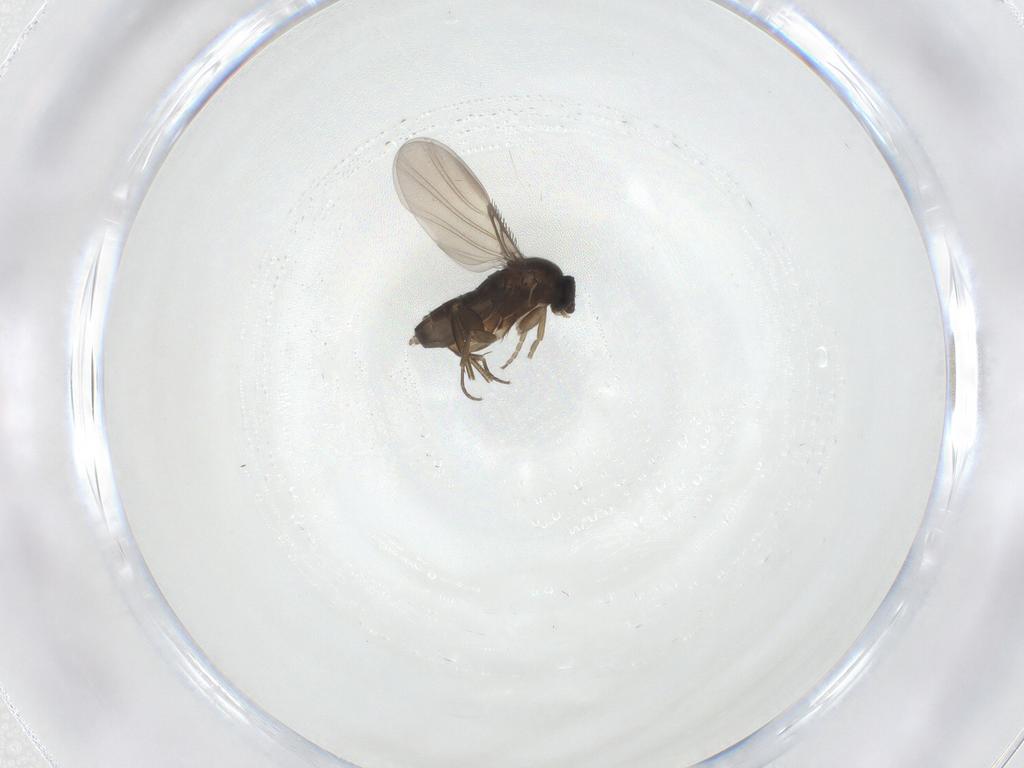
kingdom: Animalia
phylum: Arthropoda
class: Insecta
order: Diptera
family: Phoridae
